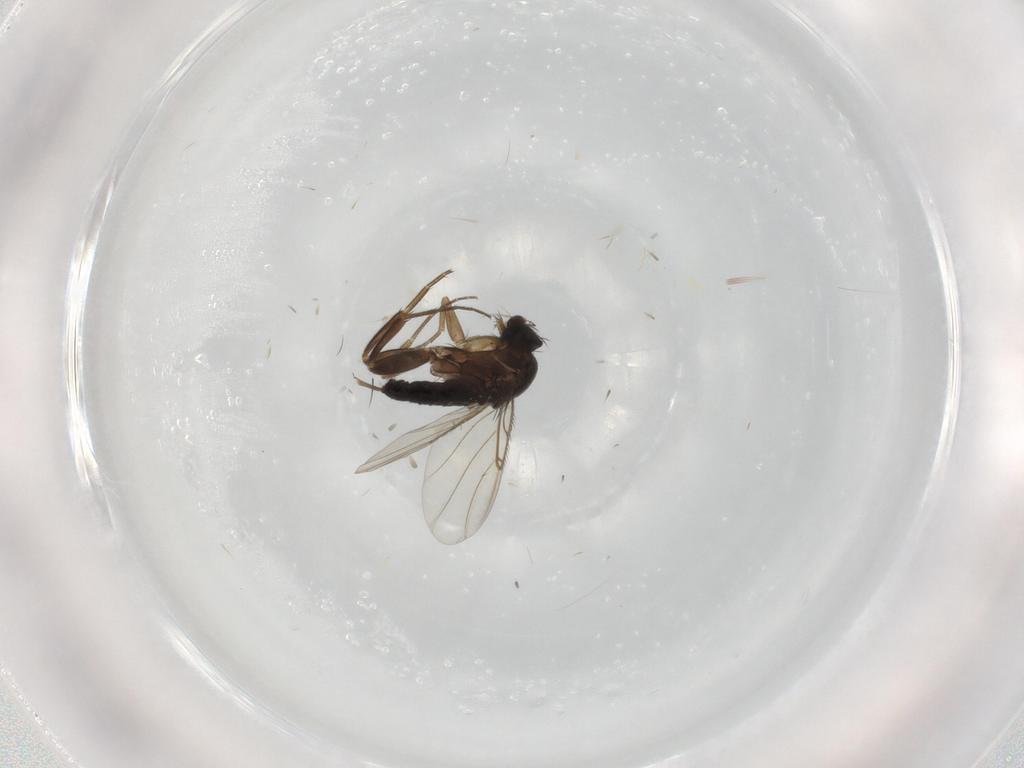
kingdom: Animalia
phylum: Arthropoda
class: Insecta
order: Diptera
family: Phoridae
